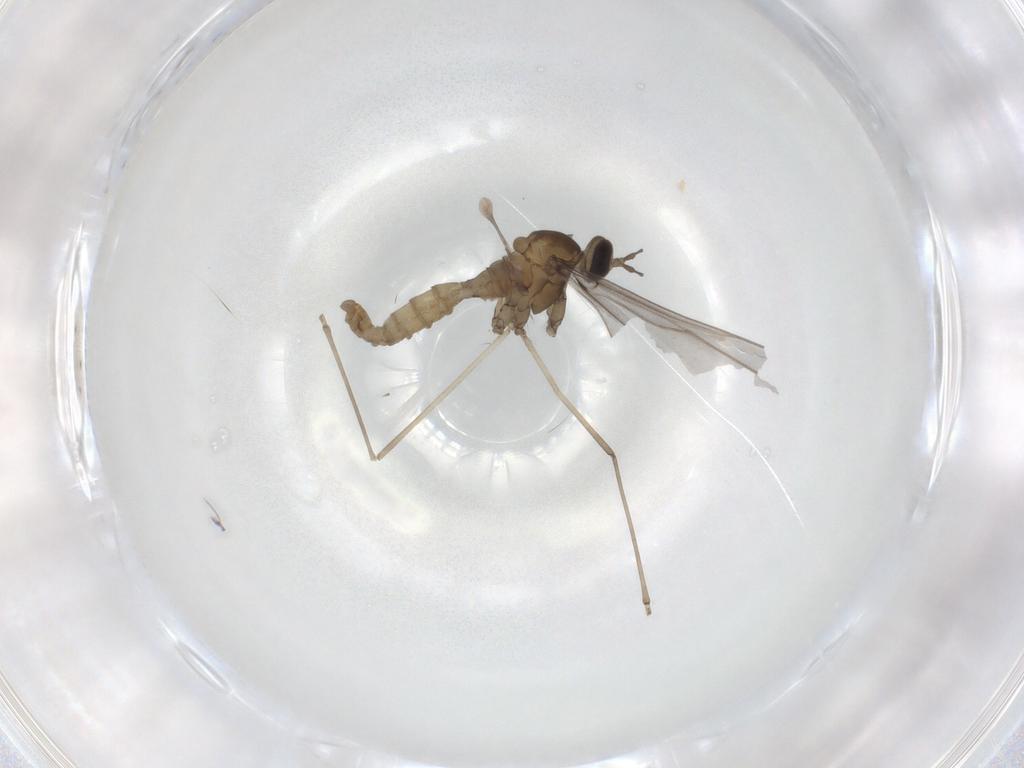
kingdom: Animalia
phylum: Arthropoda
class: Insecta
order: Diptera
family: Cecidomyiidae
